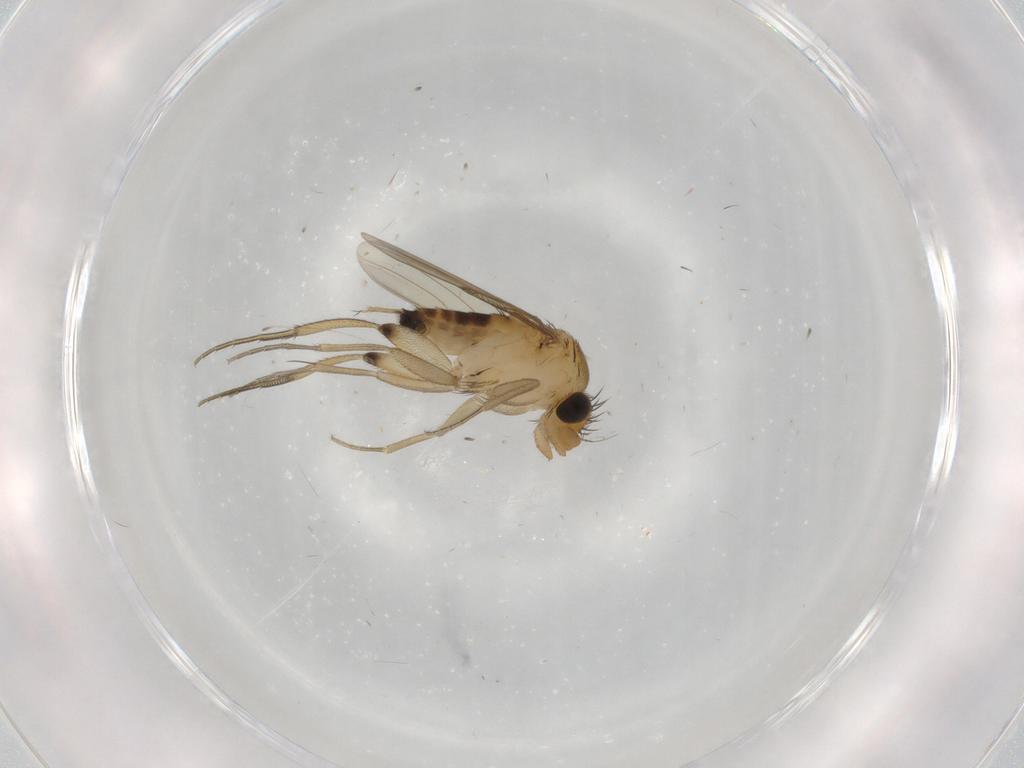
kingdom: Animalia
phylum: Arthropoda
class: Insecta
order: Diptera
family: Phoridae
